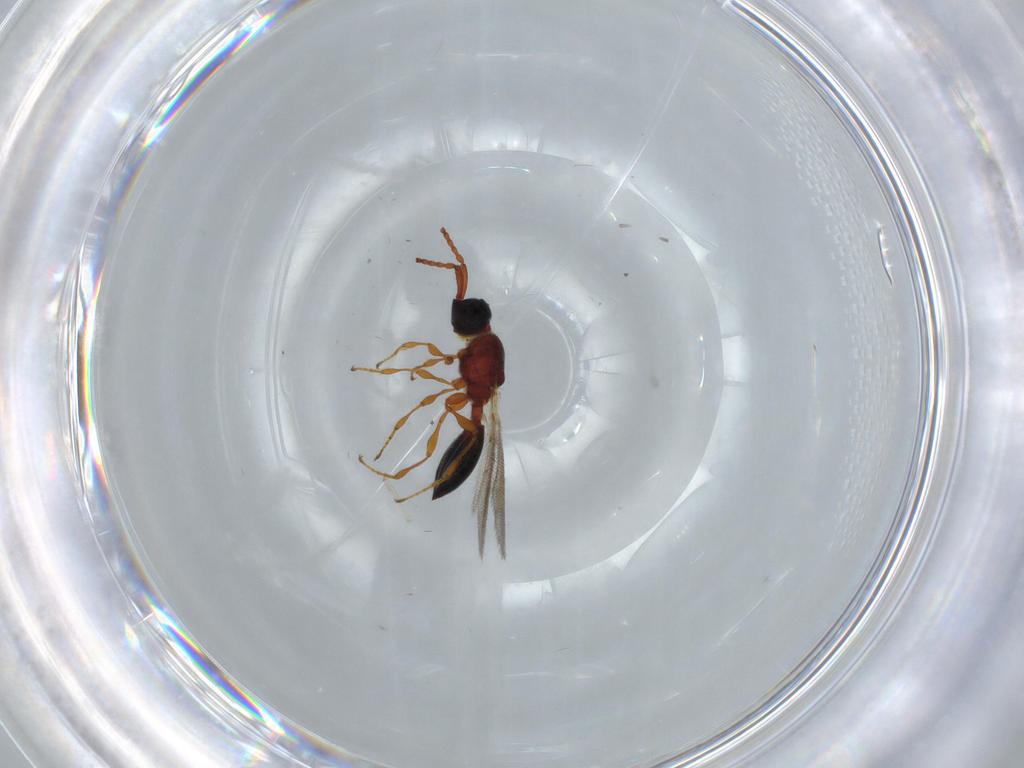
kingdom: Animalia
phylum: Arthropoda
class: Insecta
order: Hymenoptera
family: Diapriidae
